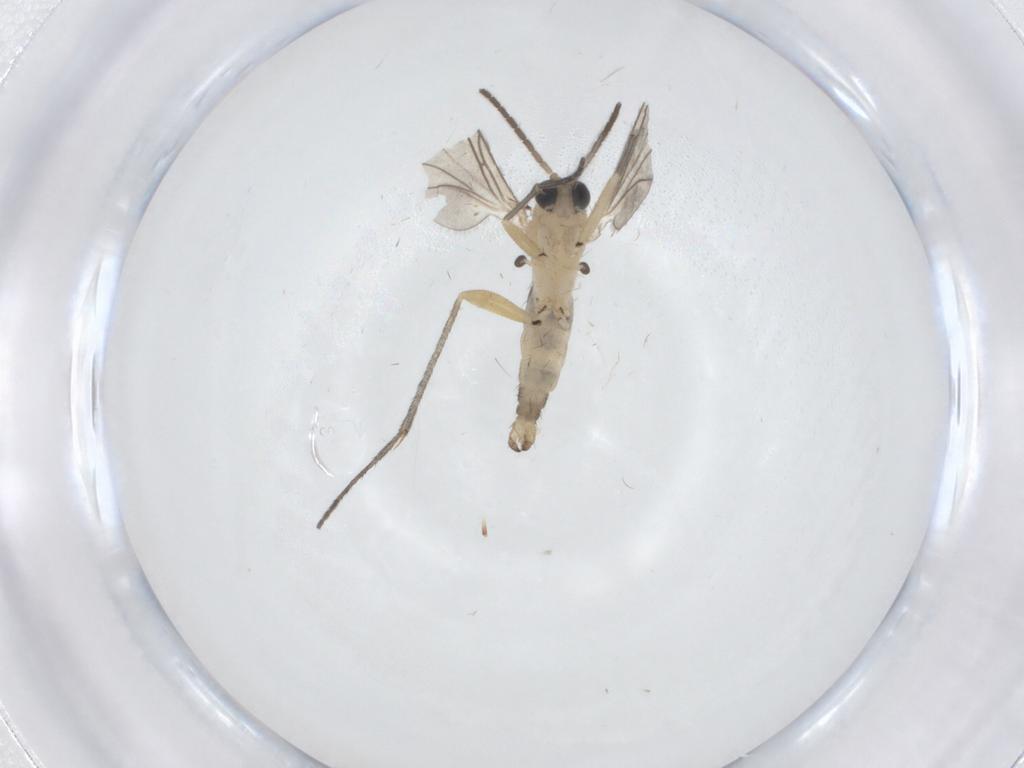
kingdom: Animalia
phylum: Arthropoda
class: Insecta
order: Diptera
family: Sciaridae
